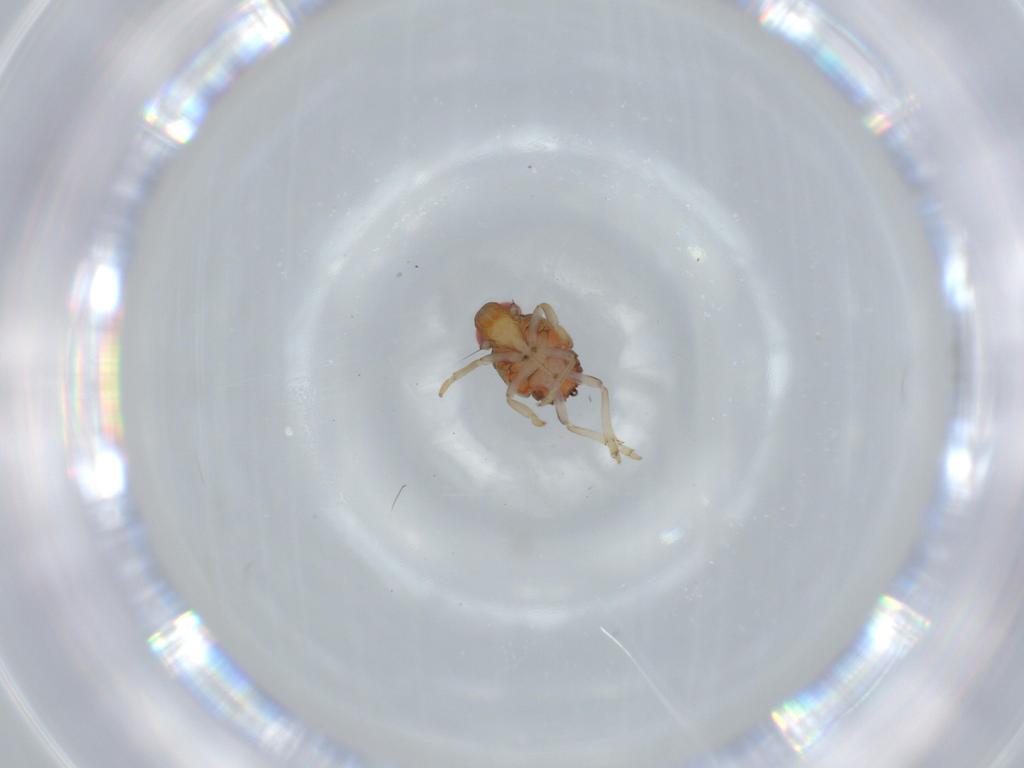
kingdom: Animalia
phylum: Arthropoda
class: Insecta
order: Hemiptera
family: Issidae
